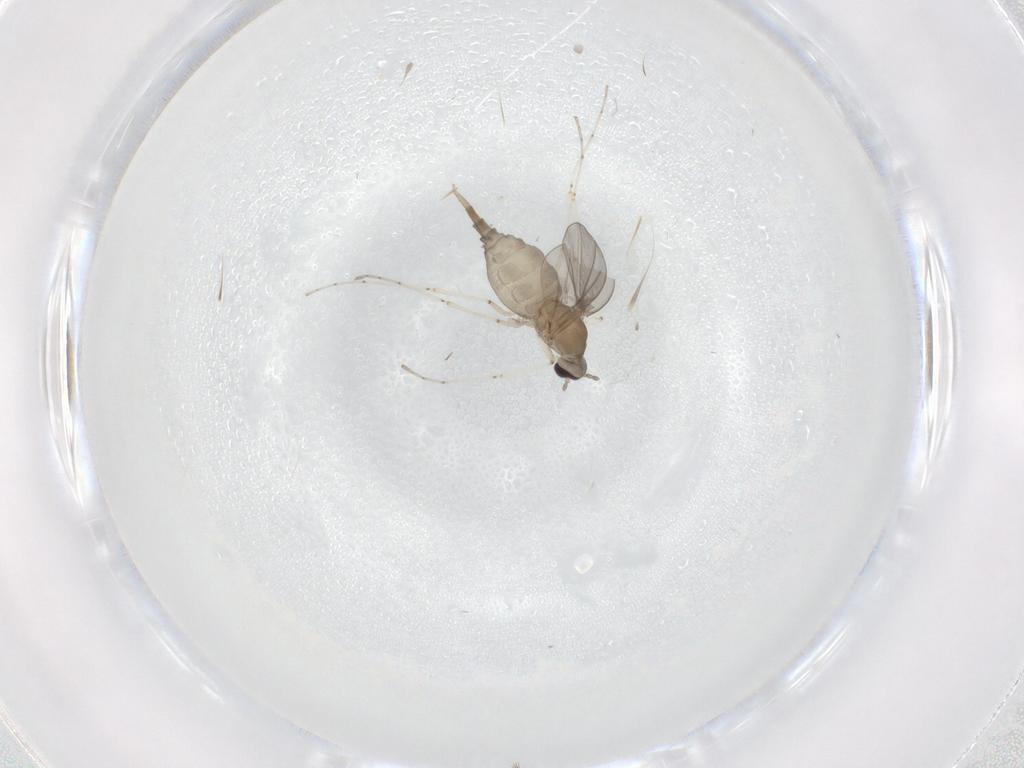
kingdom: Animalia
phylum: Arthropoda
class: Insecta
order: Diptera
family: Cecidomyiidae
